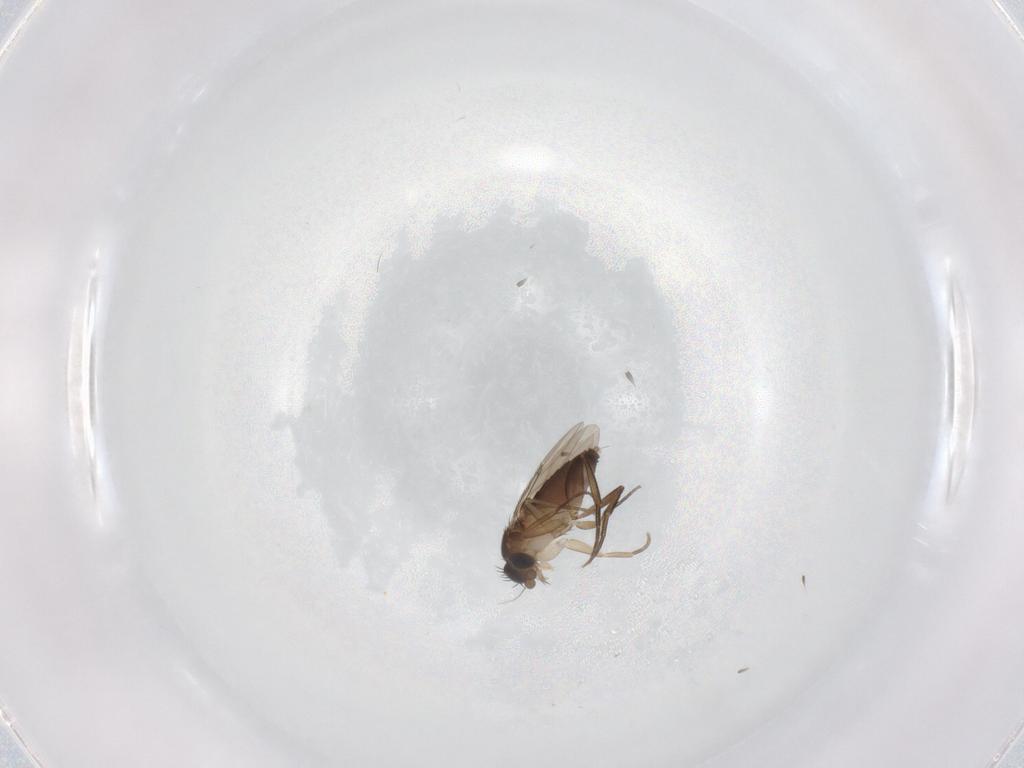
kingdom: Animalia
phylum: Arthropoda
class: Insecta
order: Diptera
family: Phoridae
